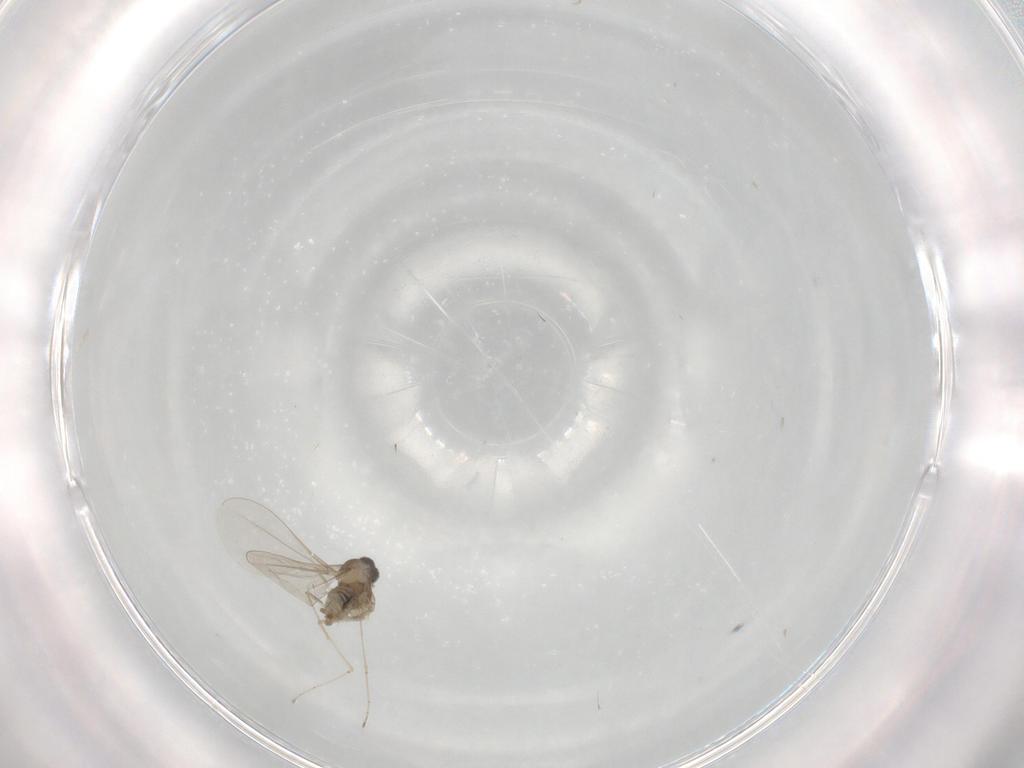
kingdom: Animalia
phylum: Arthropoda
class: Insecta
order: Diptera
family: Cecidomyiidae
